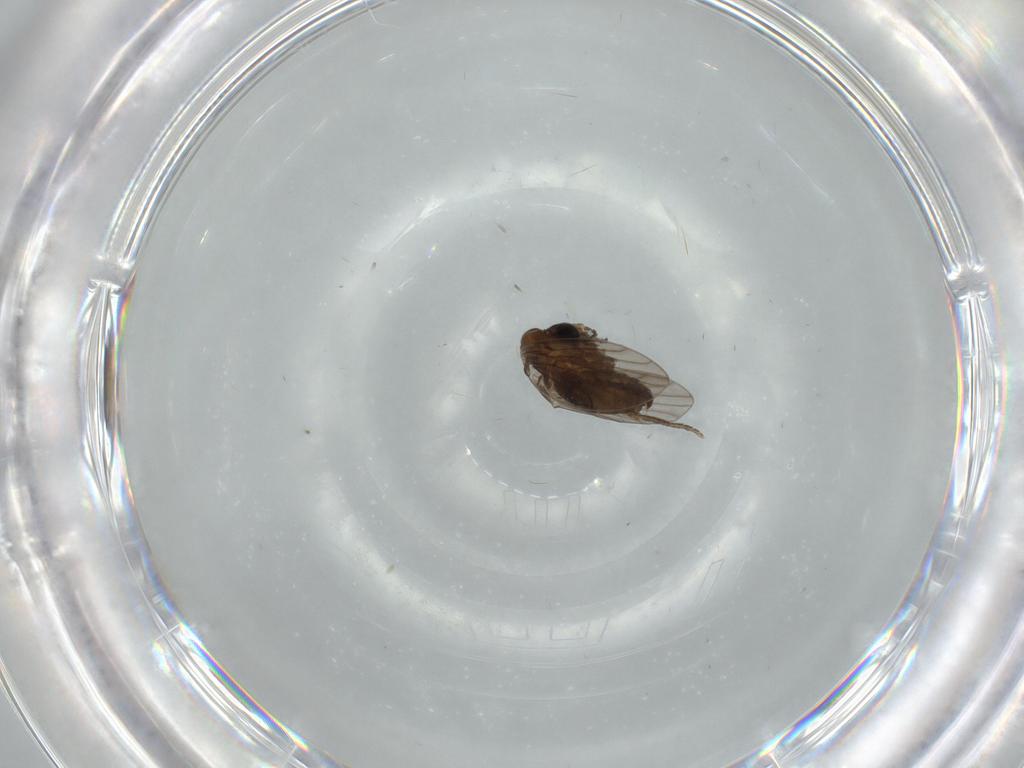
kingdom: Animalia
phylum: Arthropoda
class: Insecta
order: Diptera
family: Psychodidae
